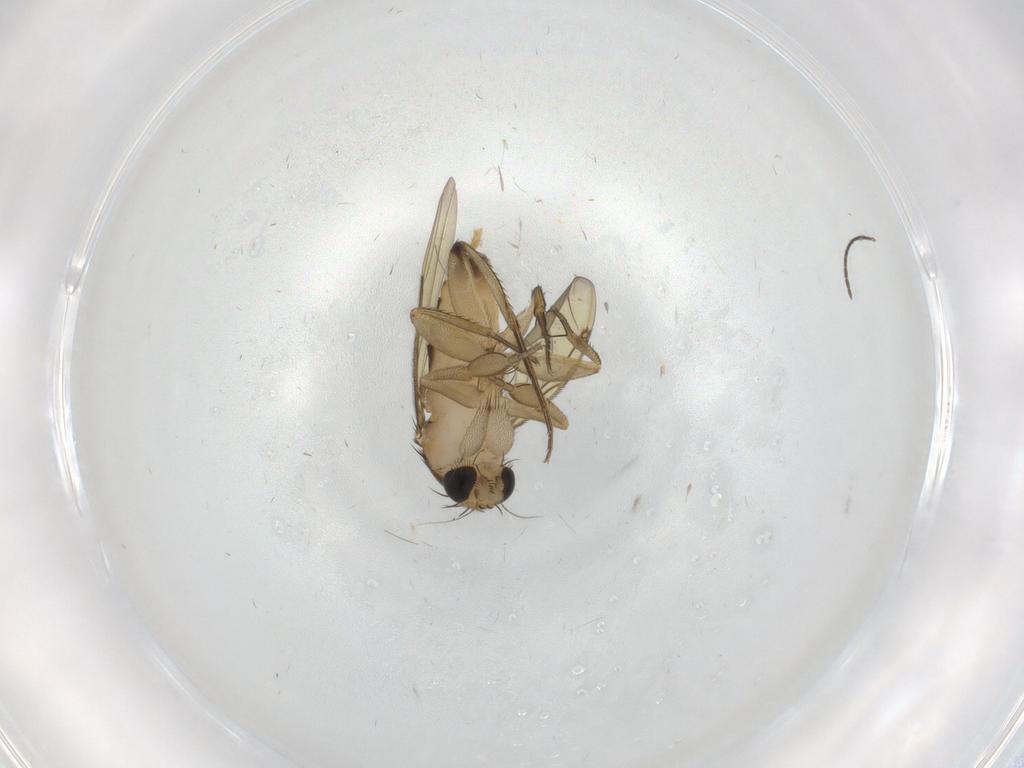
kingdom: Animalia
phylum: Arthropoda
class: Insecta
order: Diptera
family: Phoridae
